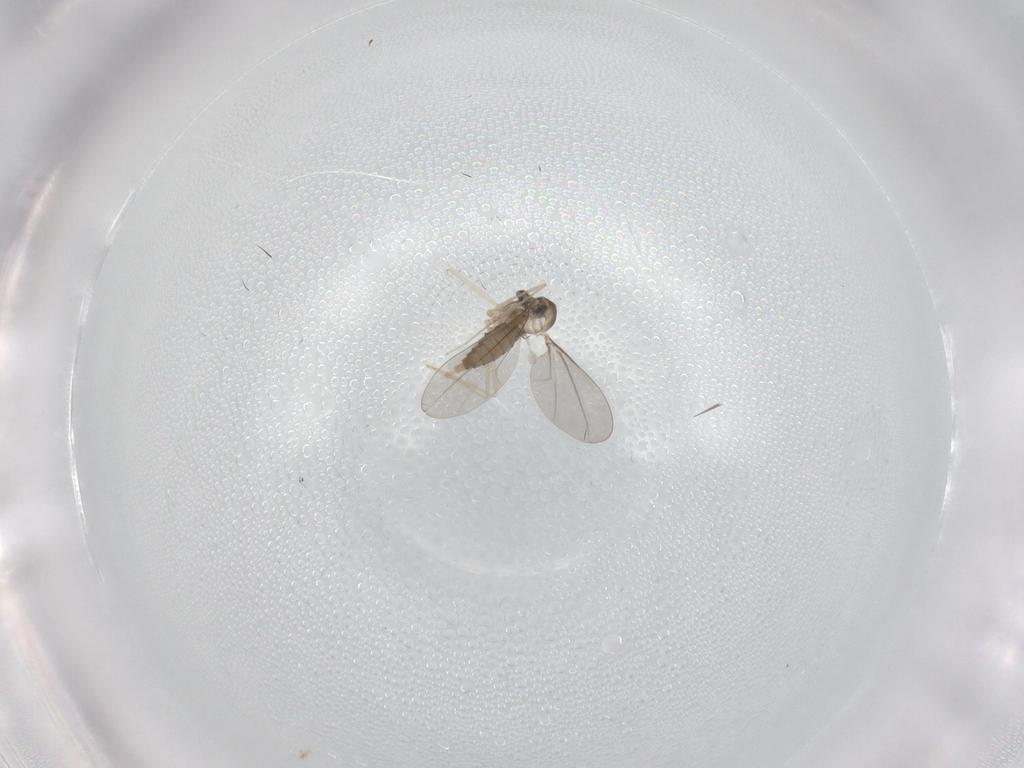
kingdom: Animalia
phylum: Arthropoda
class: Insecta
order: Diptera
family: Cecidomyiidae
